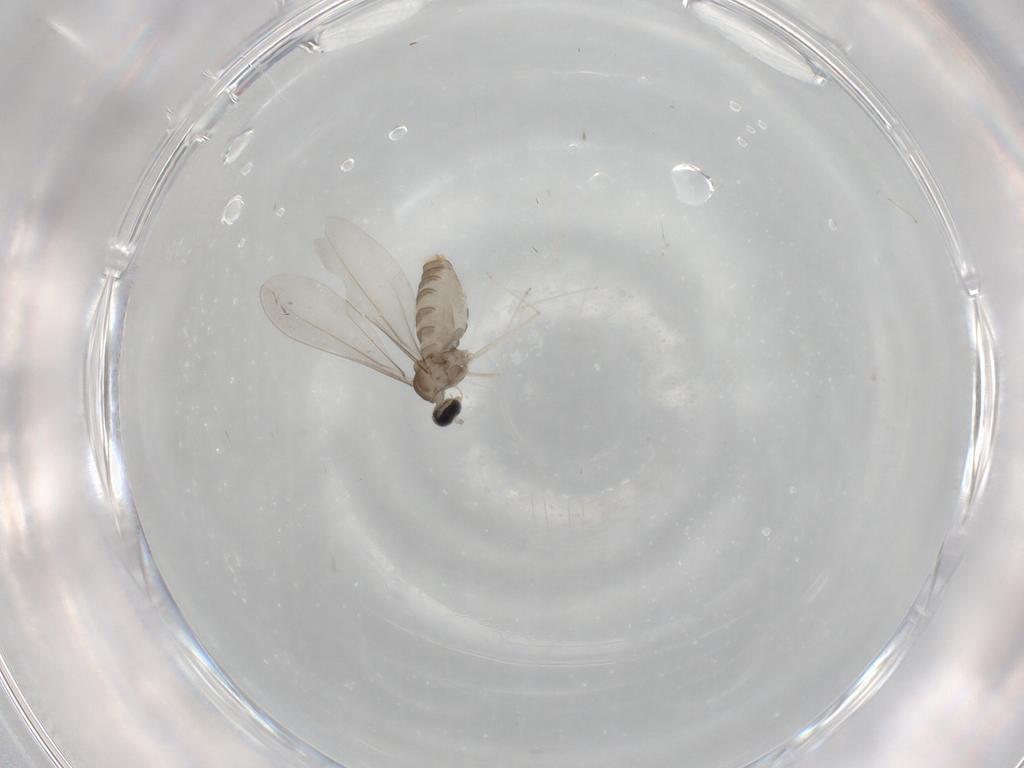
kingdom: Animalia
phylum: Arthropoda
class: Insecta
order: Diptera
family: Cecidomyiidae
